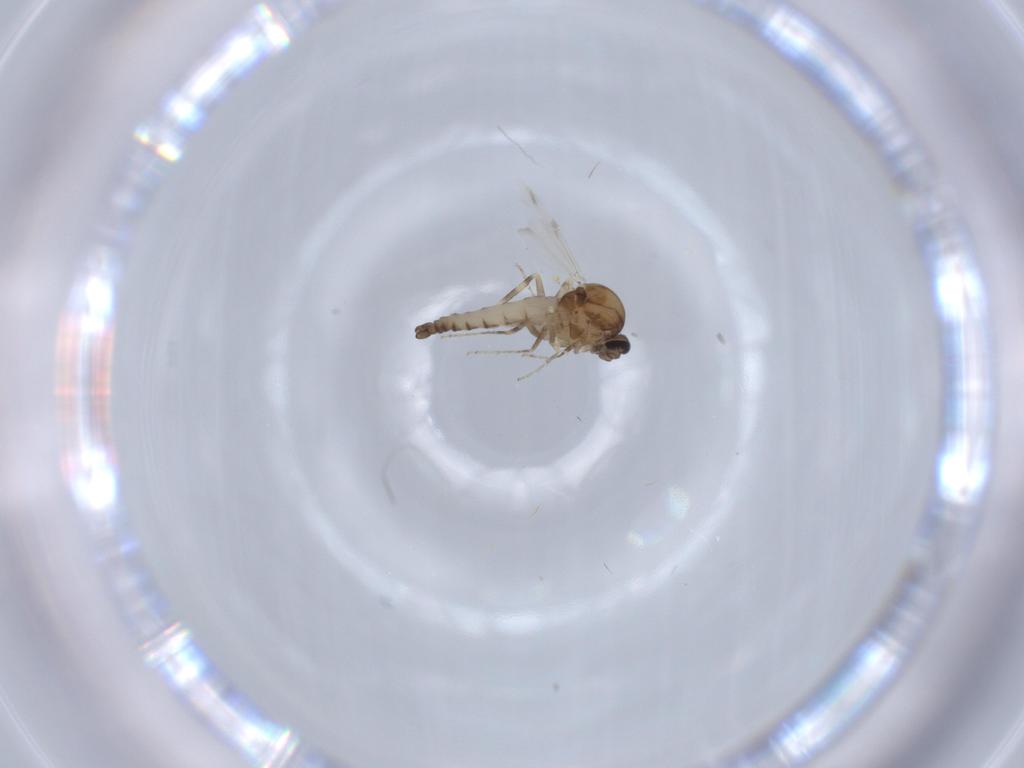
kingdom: Animalia
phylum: Arthropoda
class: Insecta
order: Diptera
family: Ceratopogonidae
